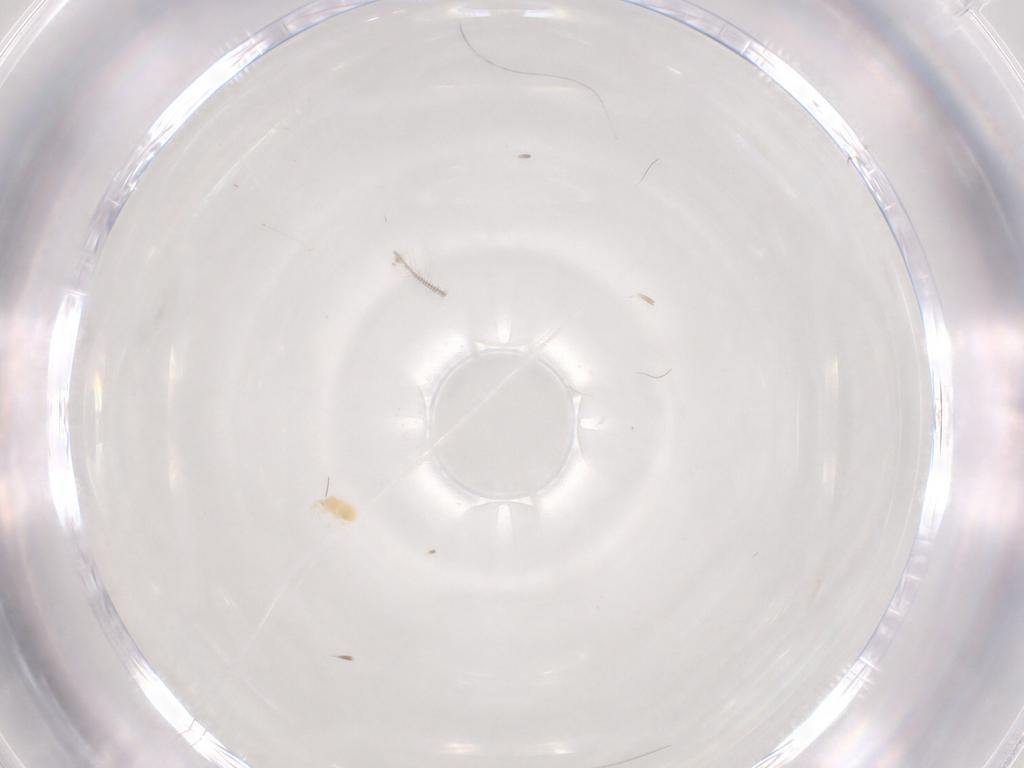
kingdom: Animalia
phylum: Arthropoda
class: Arachnida
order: Trombidiformes
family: Tetranychidae
